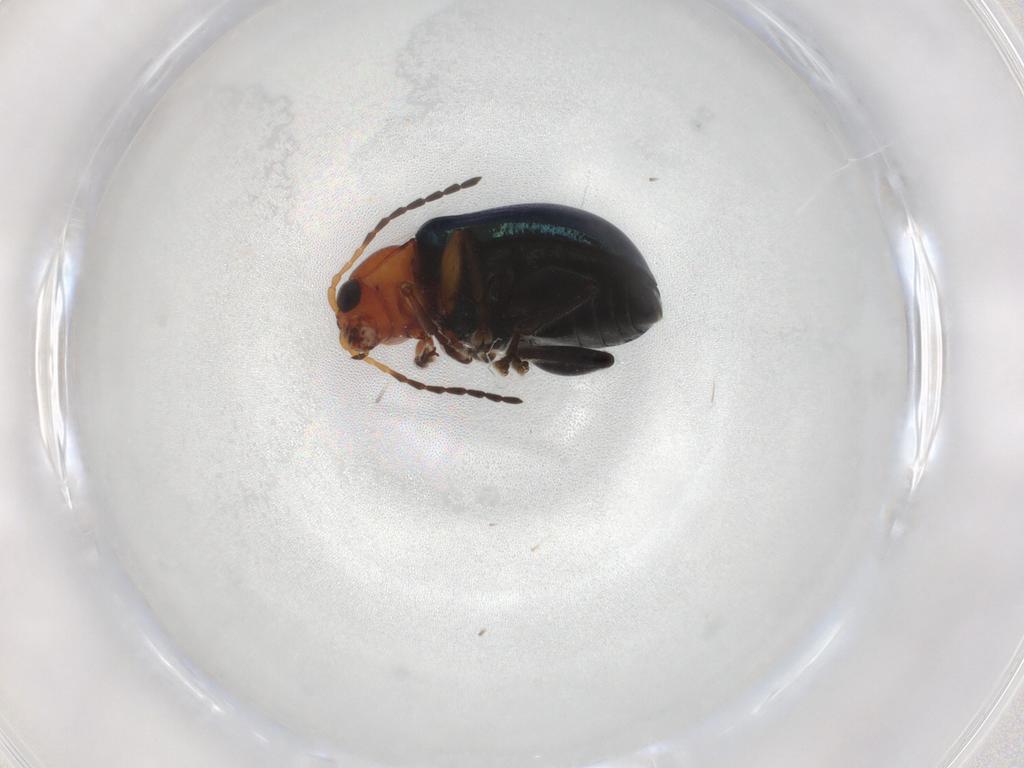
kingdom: Animalia
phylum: Arthropoda
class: Insecta
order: Coleoptera
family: Chrysomelidae
